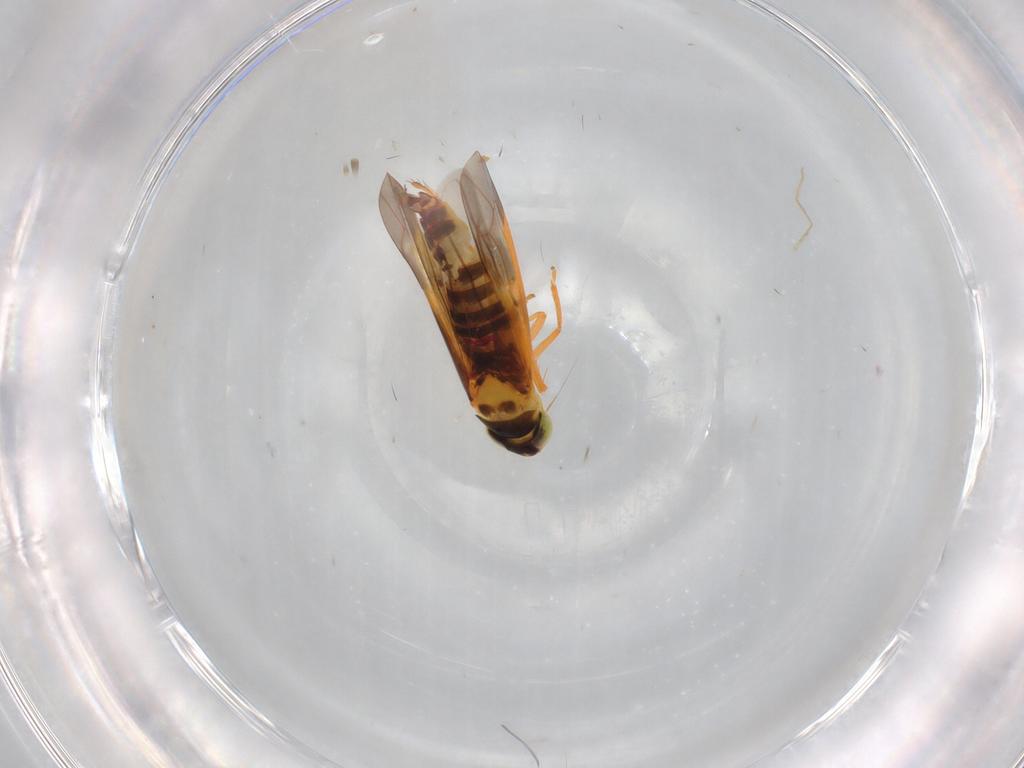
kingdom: Animalia
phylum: Arthropoda
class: Insecta
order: Hemiptera
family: Cicadellidae
